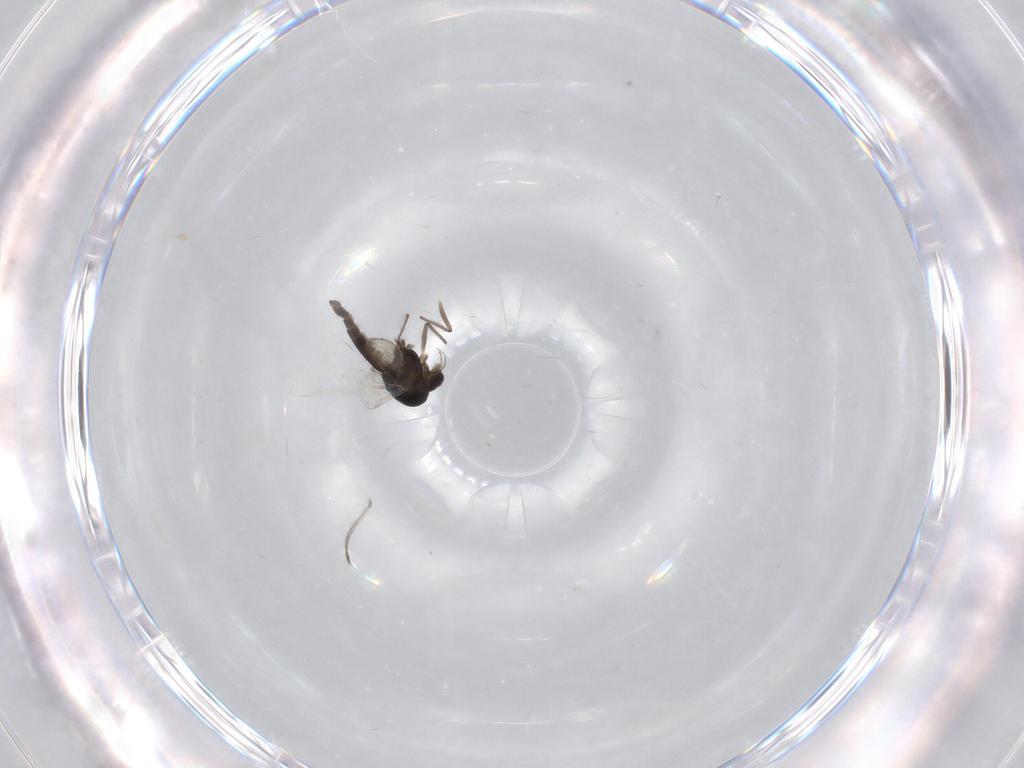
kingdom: Animalia
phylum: Arthropoda
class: Insecta
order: Diptera
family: Chironomidae
